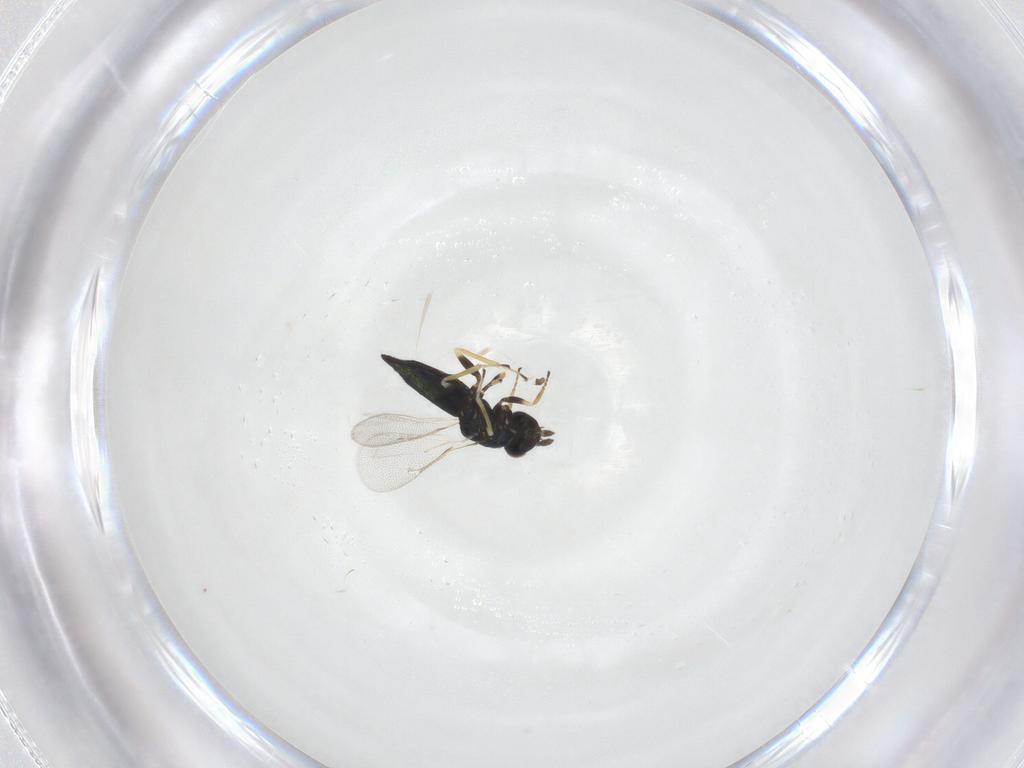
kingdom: Animalia
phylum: Arthropoda
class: Insecta
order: Hymenoptera
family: Eulophidae
